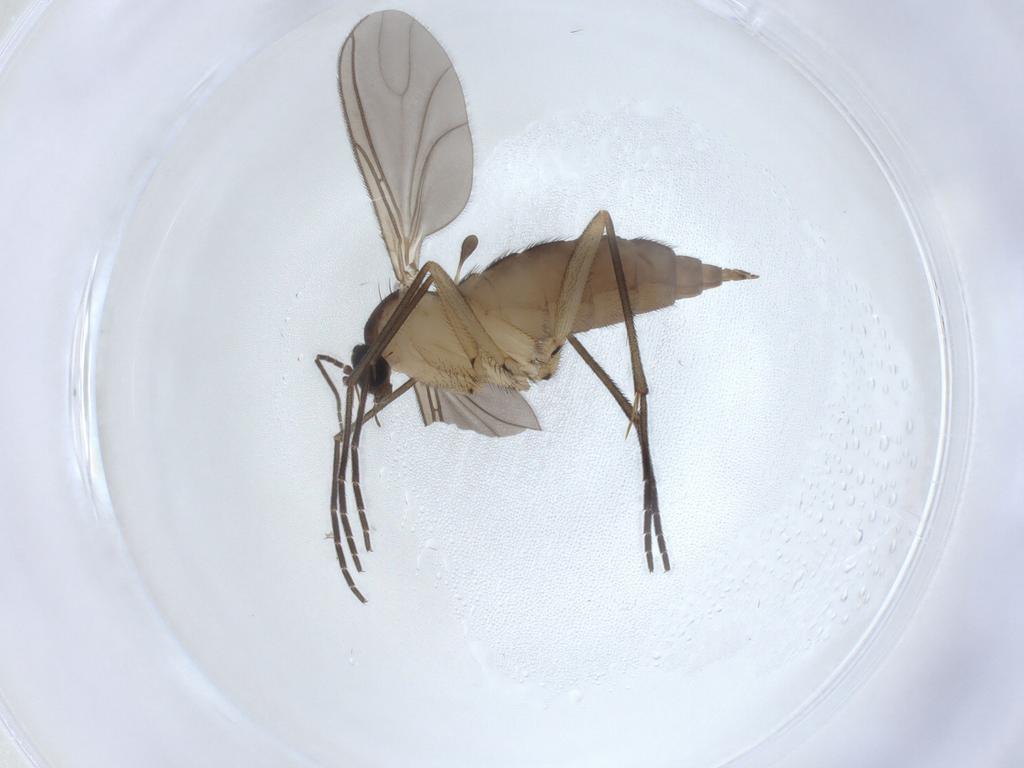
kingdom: Animalia
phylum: Arthropoda
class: Insecta
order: Diptera
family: Sciaridae
